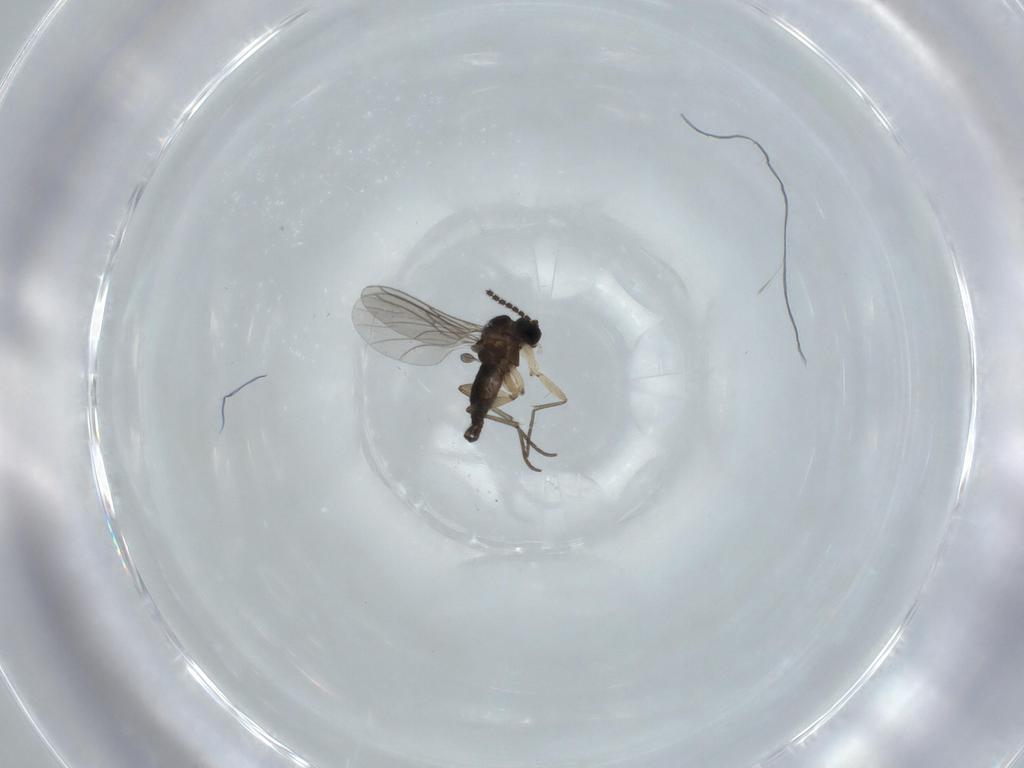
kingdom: Animalia
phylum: Arthropoda
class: Insecta
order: Diptera
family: Sciaridae
